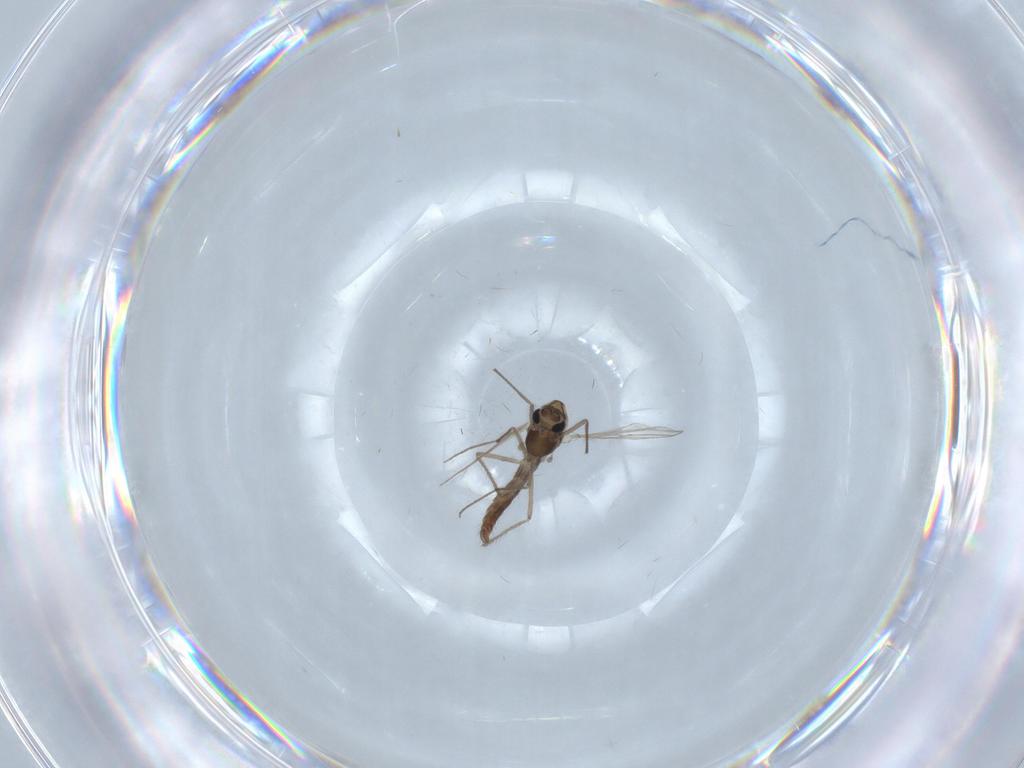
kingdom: Animalia
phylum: Arthropoda
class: Insecta
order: Diptera
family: Chironomidae
